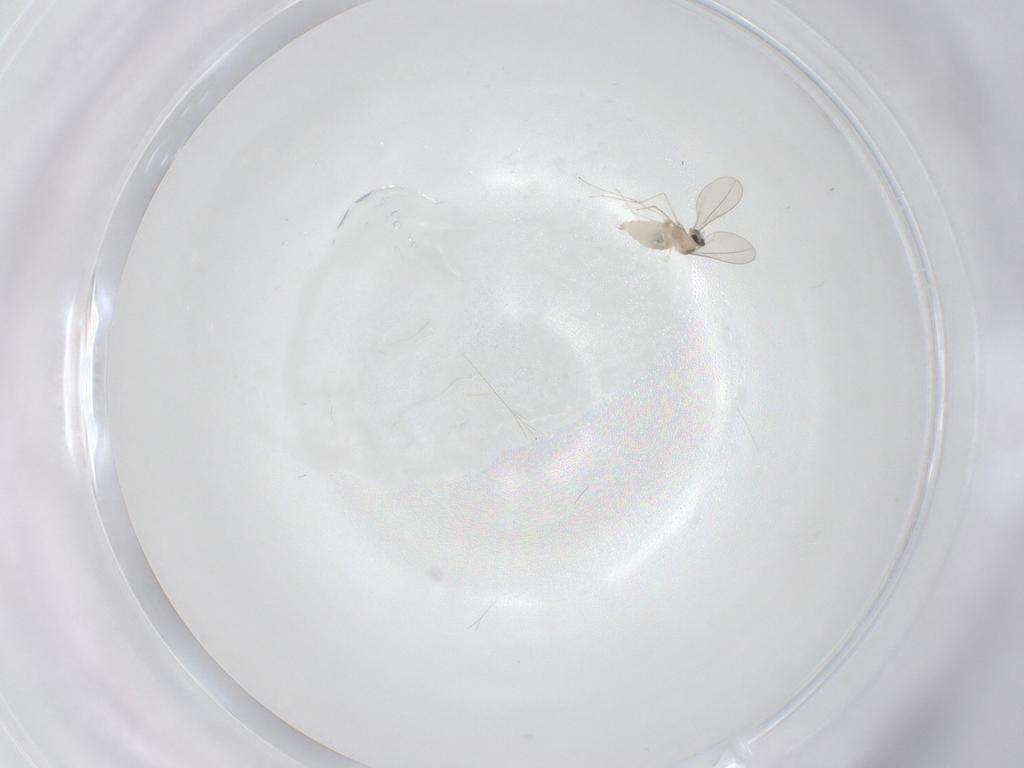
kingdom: Animalia
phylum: Arthropoda
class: Insecta
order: Diptera
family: Cecidomyiidae
